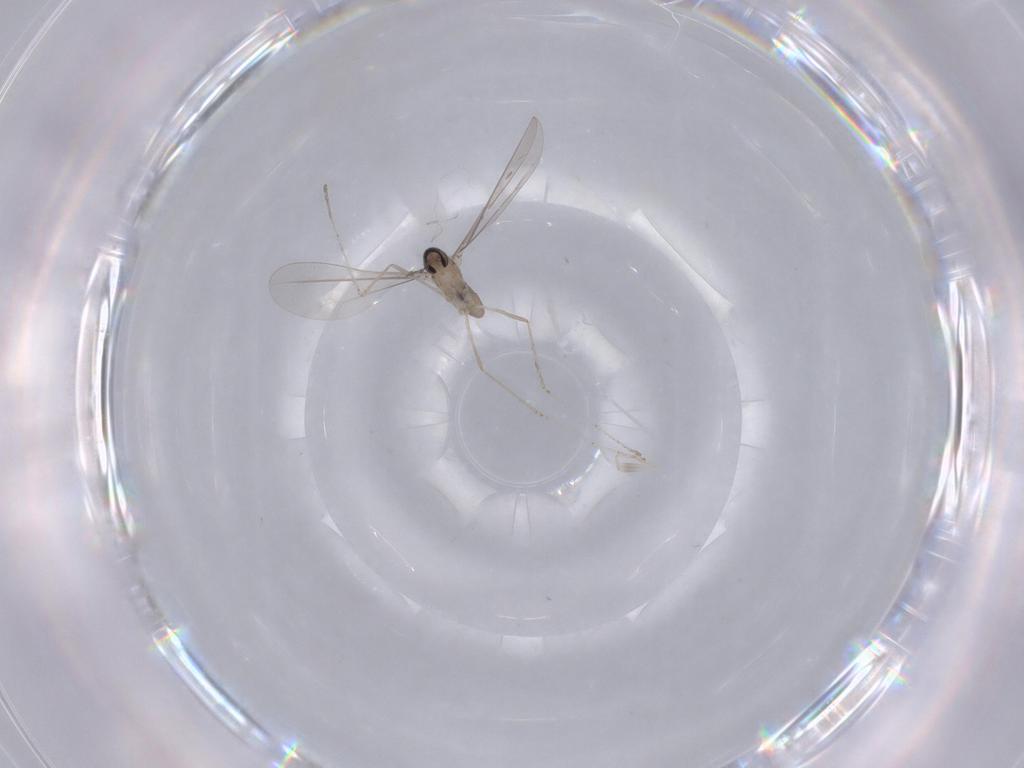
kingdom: Animalia
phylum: Arthropoda
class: Insecta
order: Diptera
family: Cecidomyiidae
